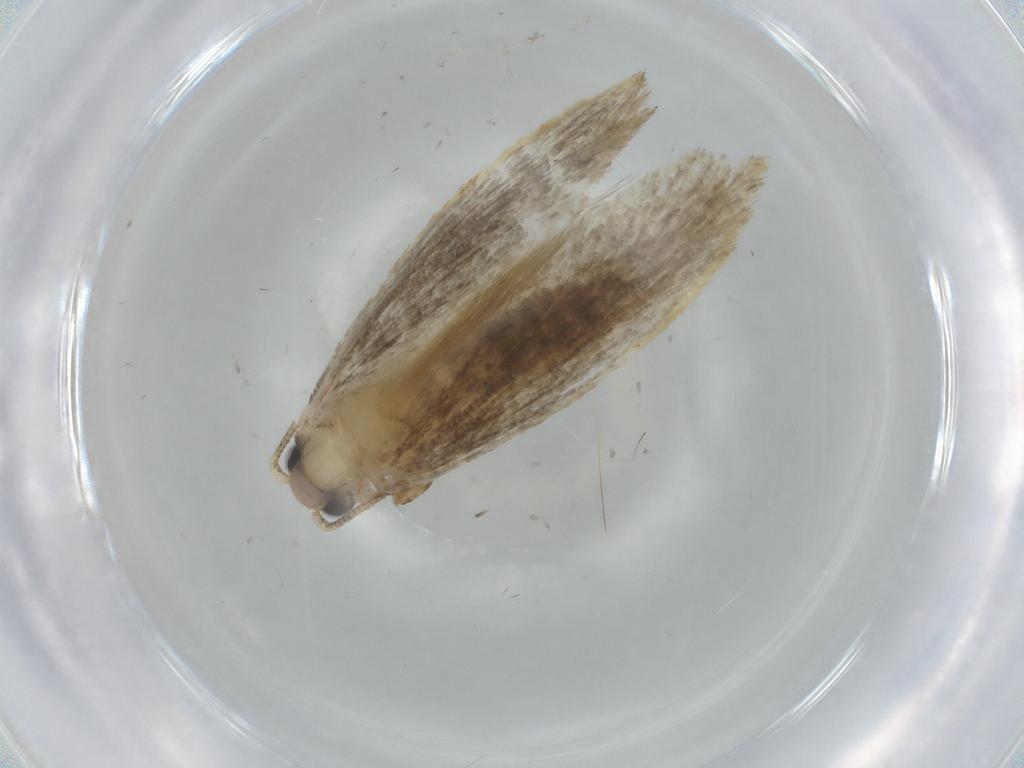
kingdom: Animalia
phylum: Arthropoda
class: Insecta
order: Lepidoptera
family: Tineidae
